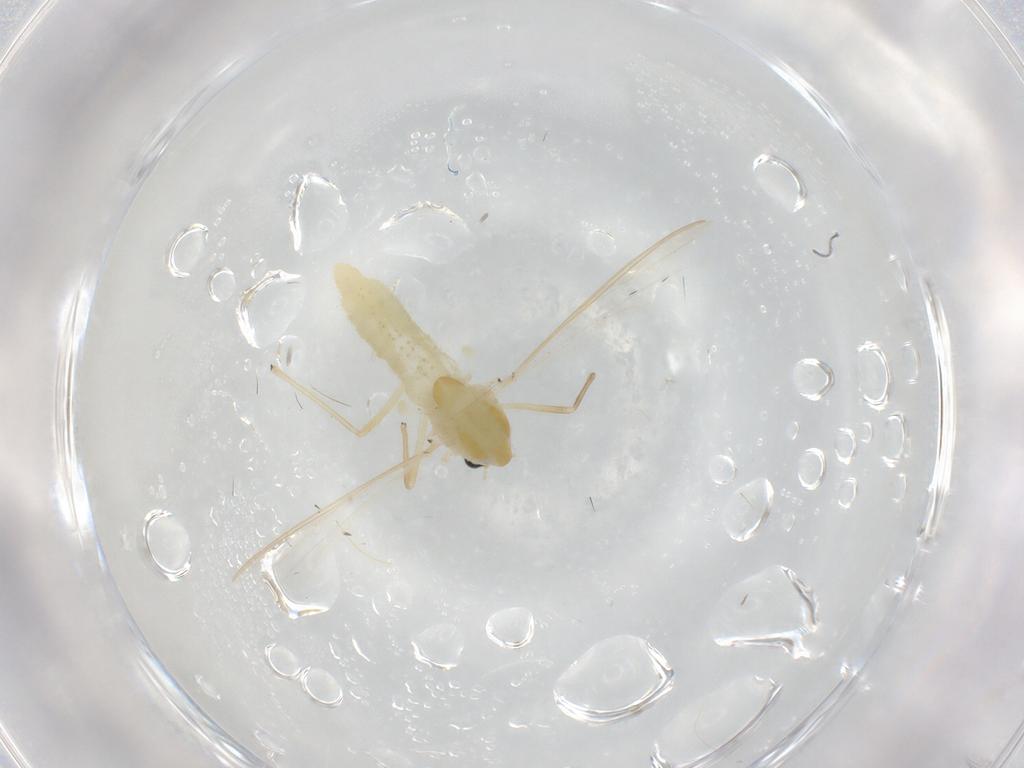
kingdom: Animalia
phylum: Arthropoda
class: Insecta
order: Diptera
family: Chironomidae
